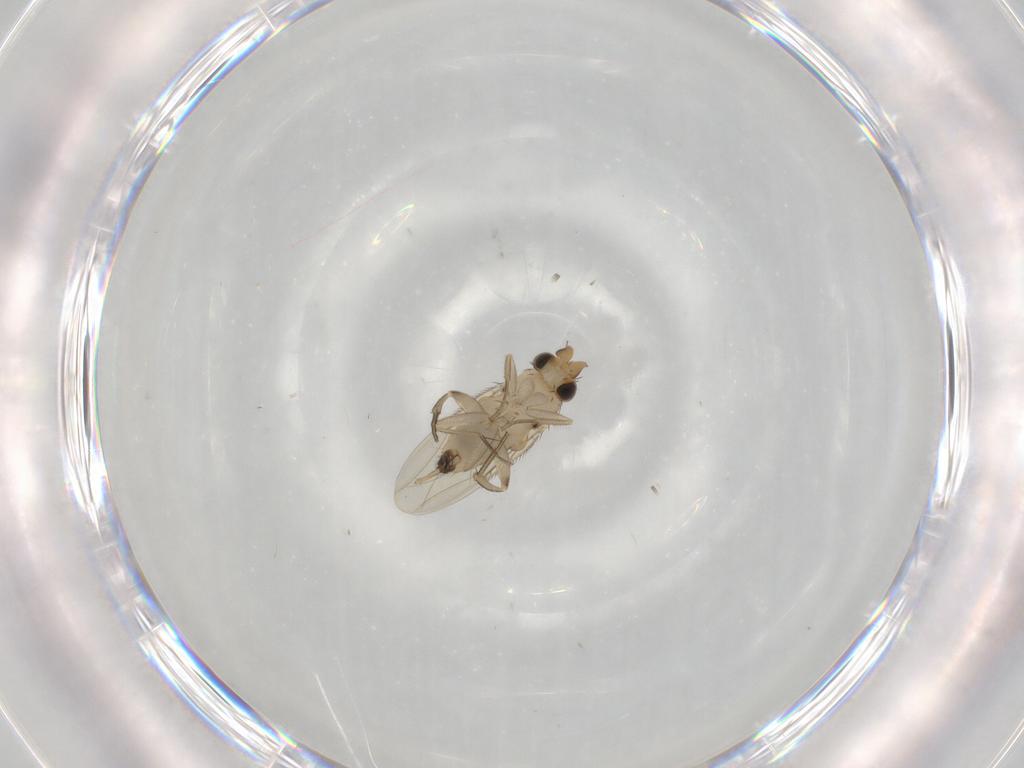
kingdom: Animalia
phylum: Arthropoda
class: Insecta
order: Diptera
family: Phoridae
